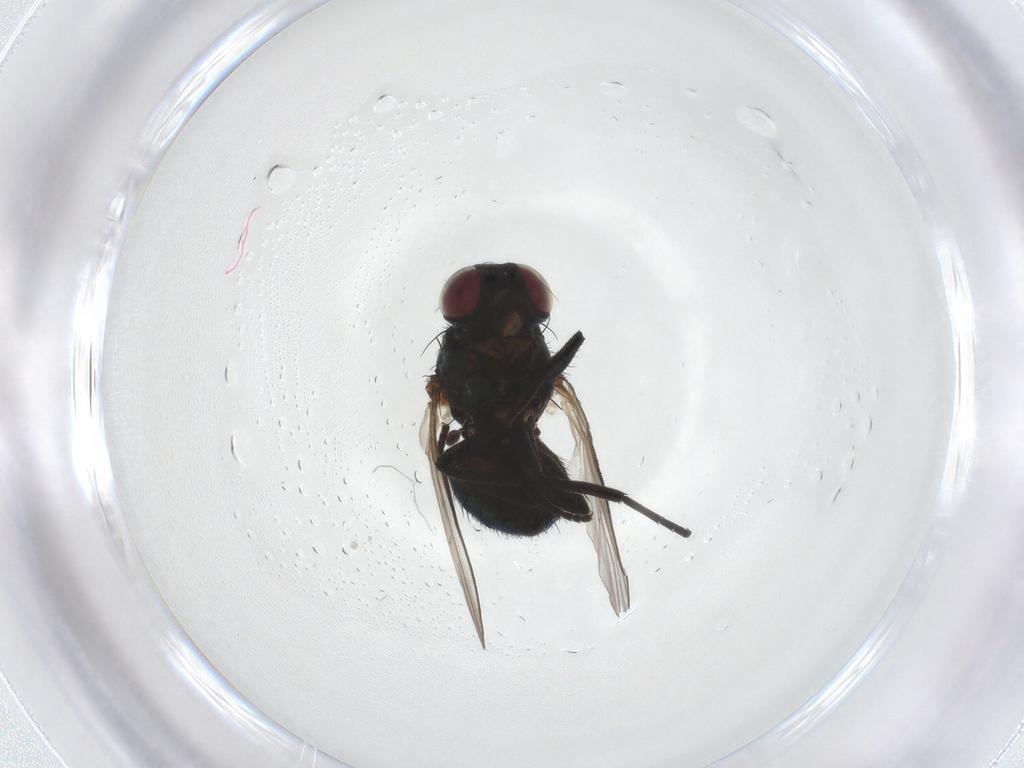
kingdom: Animalia
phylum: Arthropoda
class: Insecta
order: Diptera
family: Agromyzidae
